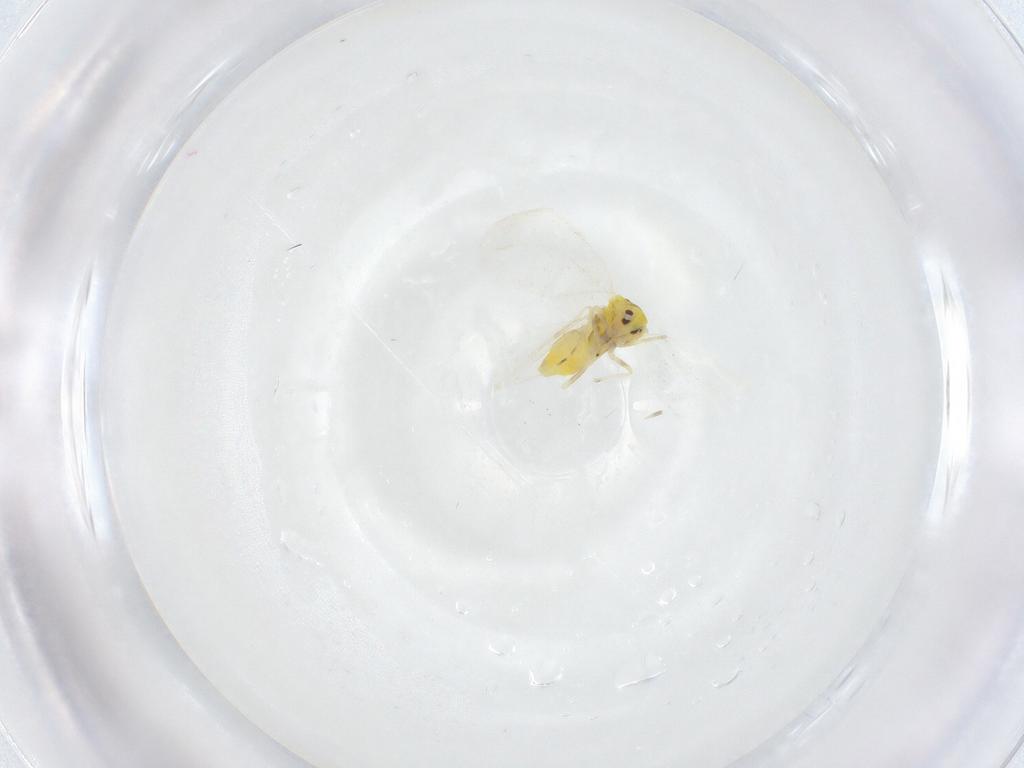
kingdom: Animalia
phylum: Arthropoda
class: Insecta
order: Hemiptera
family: Aleyrodidae
